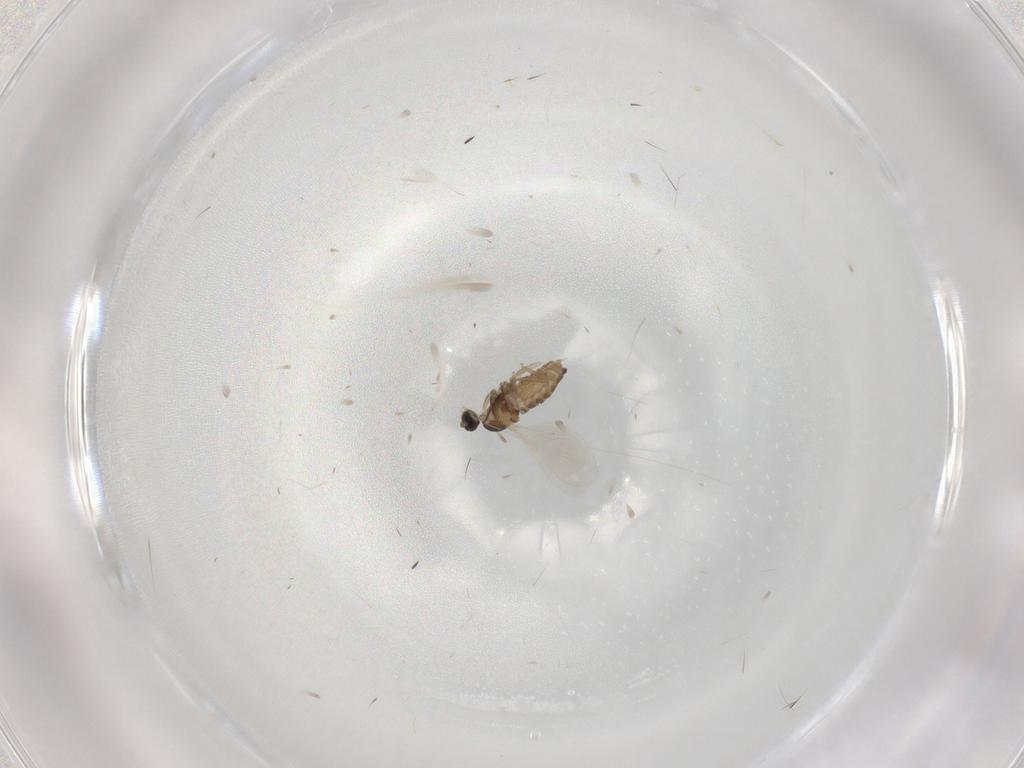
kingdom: Animalia
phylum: Arthropoda
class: Insecta
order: Diptera
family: Cecidomyiidae
